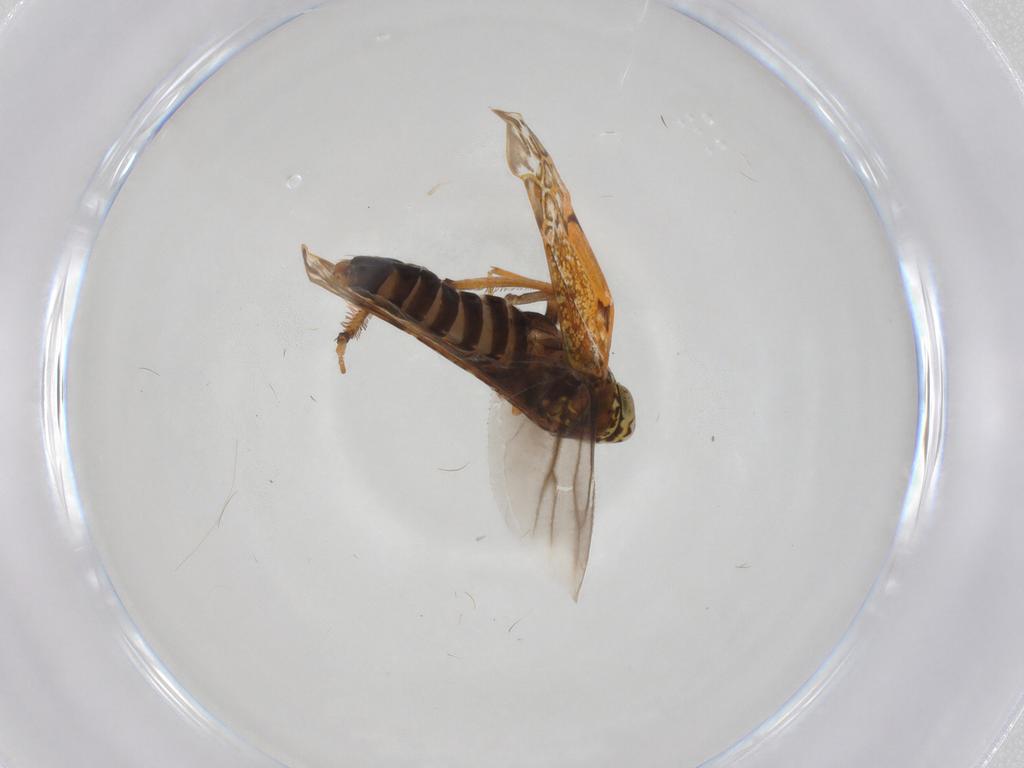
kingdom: Animalia
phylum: Arthropoda
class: Insecta
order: Hemiptera
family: Cicadellidae
